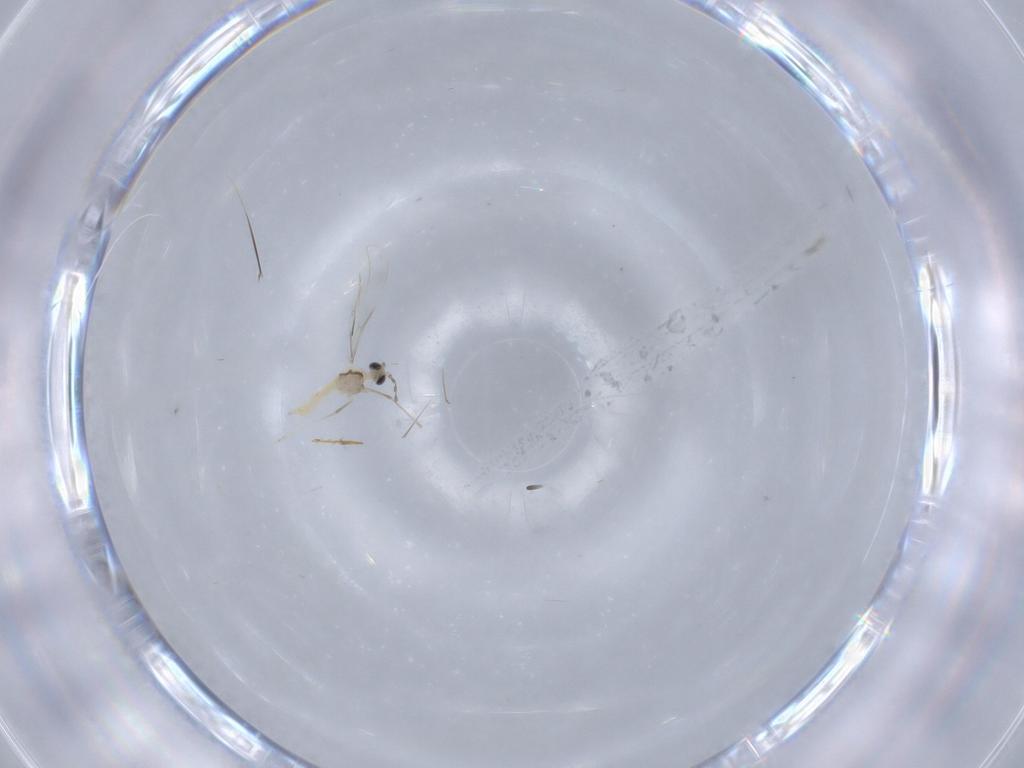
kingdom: Animalia
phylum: Arthropoda
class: Insecta
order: Diptera
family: Cecidomyiidae
